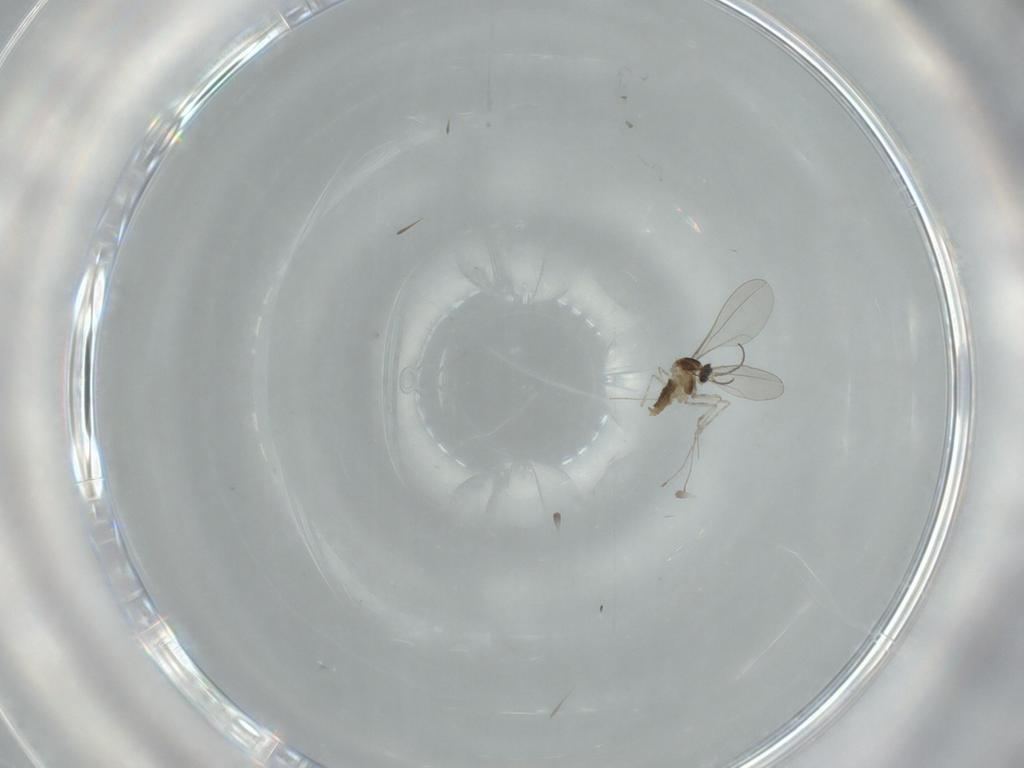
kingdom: Animalia
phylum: Arthropoda
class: Insecta
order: Diptera
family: Cecidomyiidae
